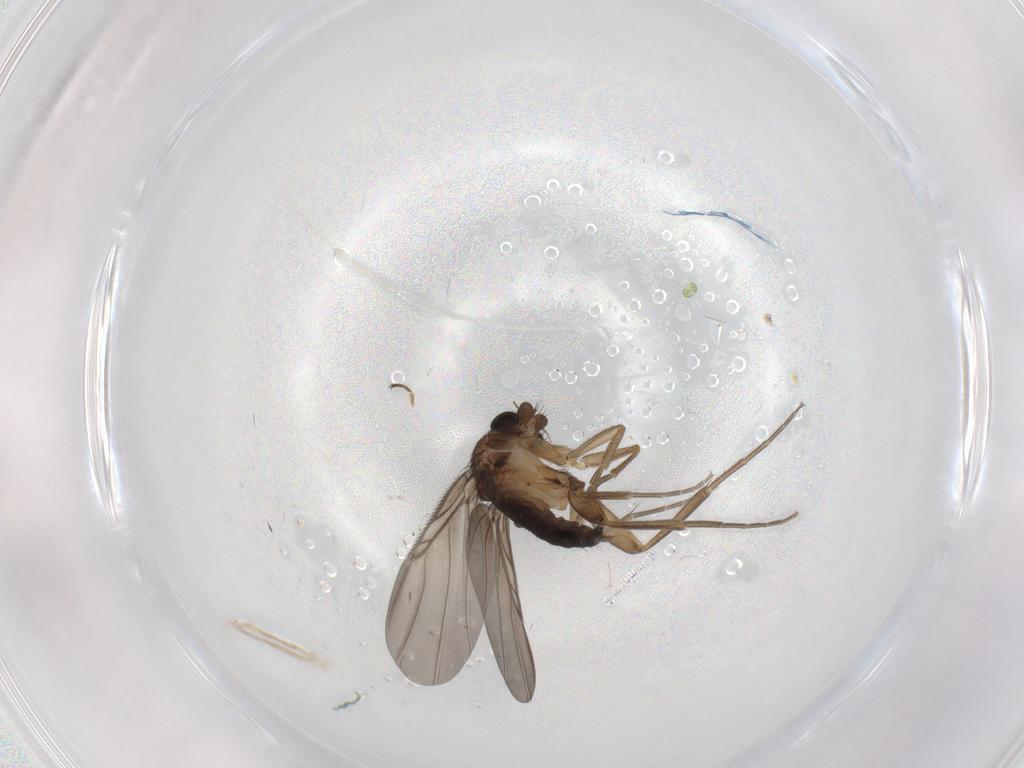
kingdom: Animalia
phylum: Arthropoda
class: Insecta
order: Diptera
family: Phoridae
